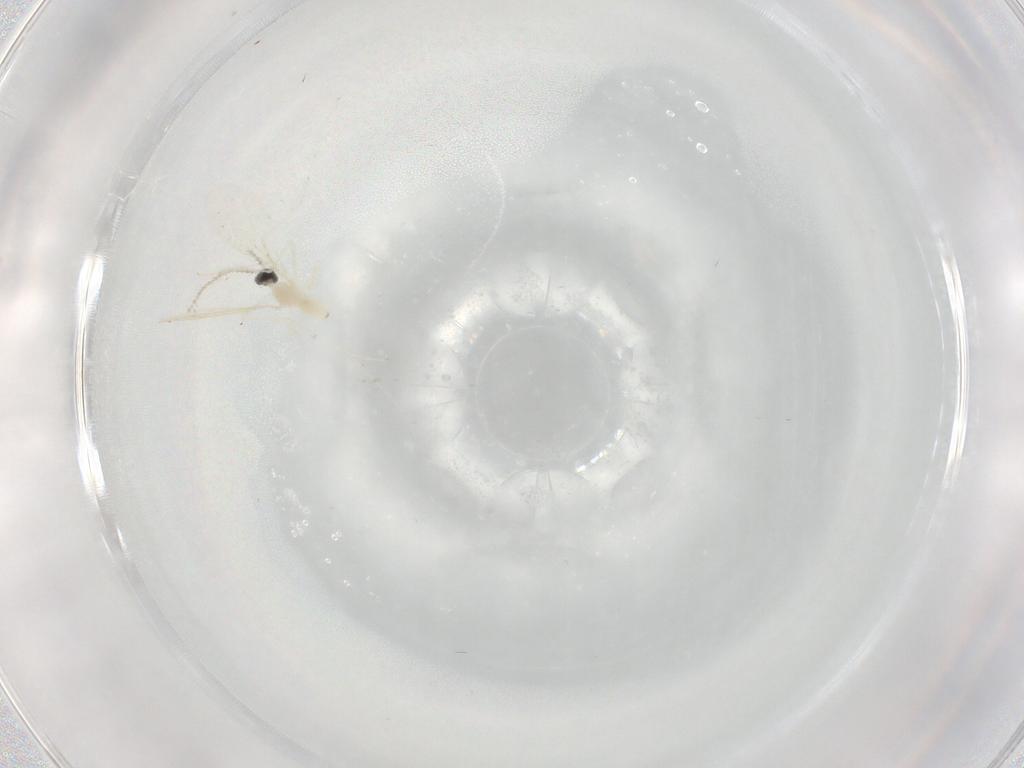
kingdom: Animalia
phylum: Arthropoda
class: Insecta
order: Diptera
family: Cecidomyiidae
